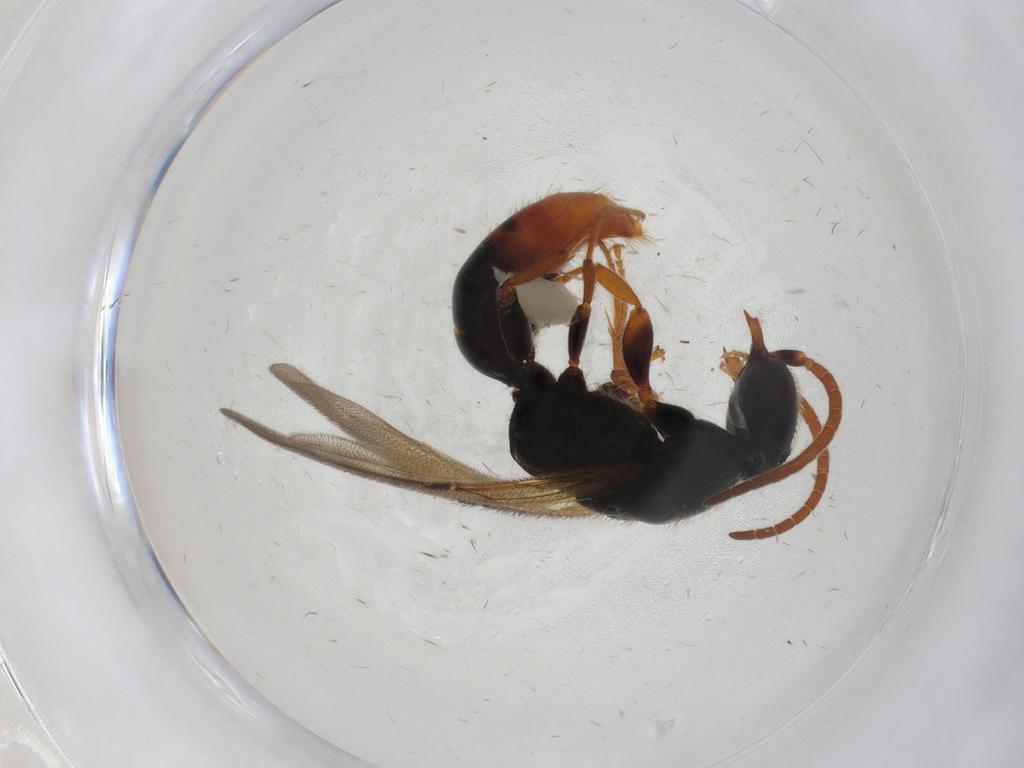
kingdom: Animalia
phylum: Arthropoda
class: Insecta
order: Hymenoptera
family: Bethylidae
